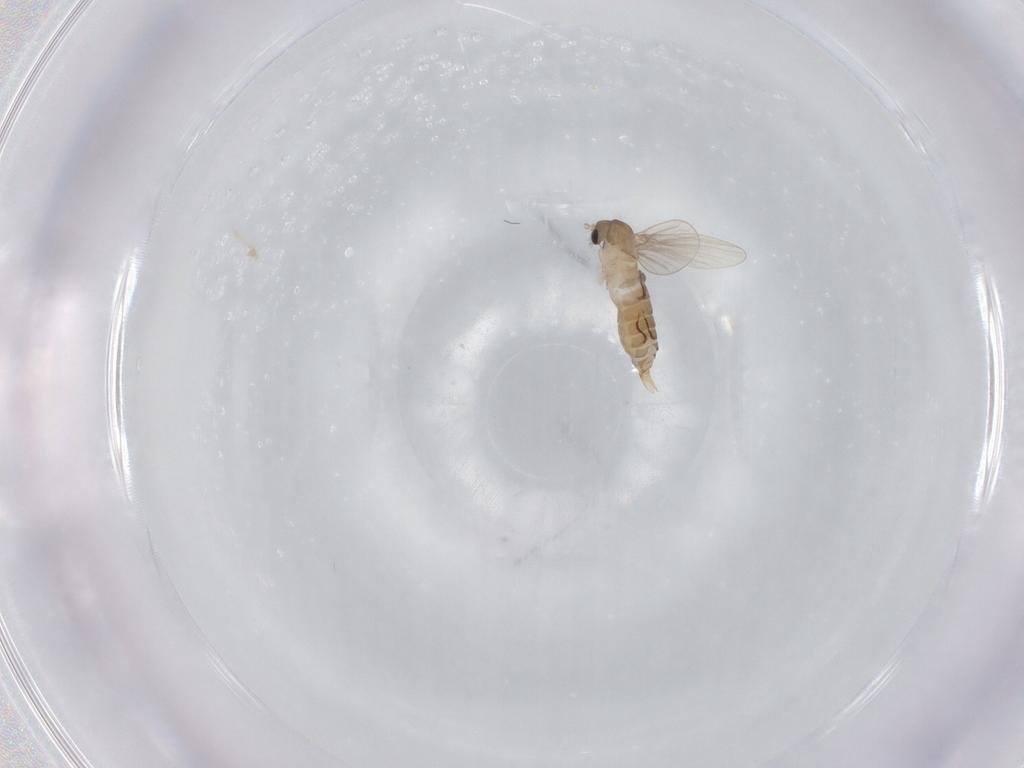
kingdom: Animalia
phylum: Arthropoda
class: Insecta
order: Diptera
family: Psychodidae
